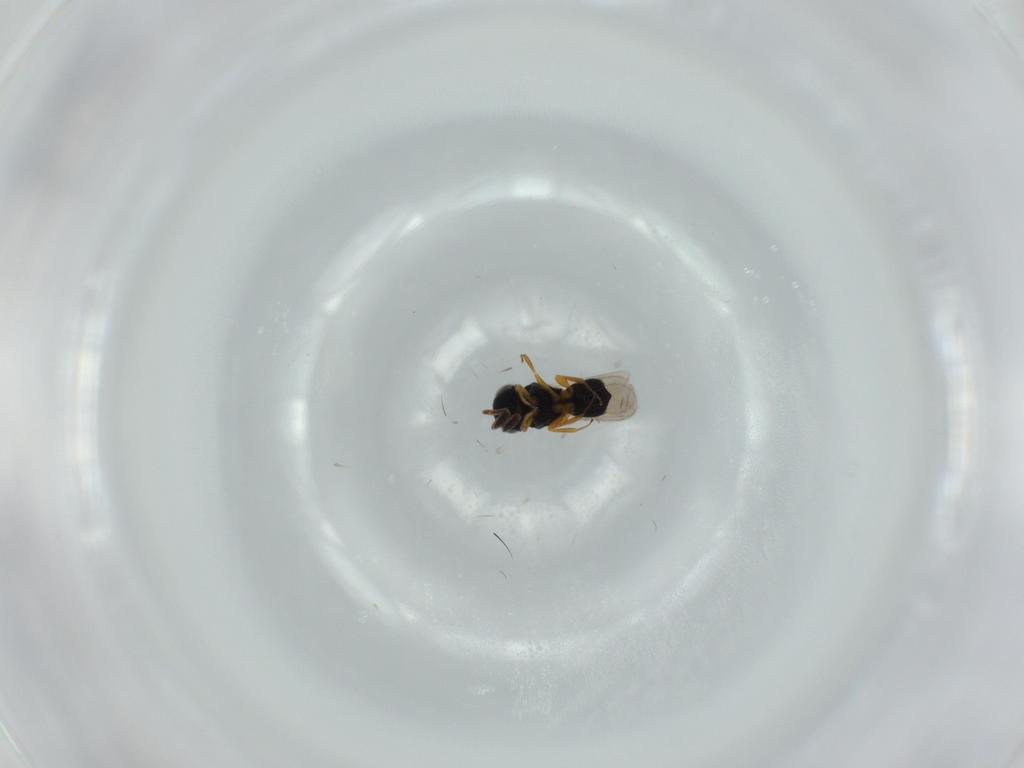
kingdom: Animalia
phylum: Arthropoda
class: Insecta
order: Hymenoptera
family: Scelionidae
